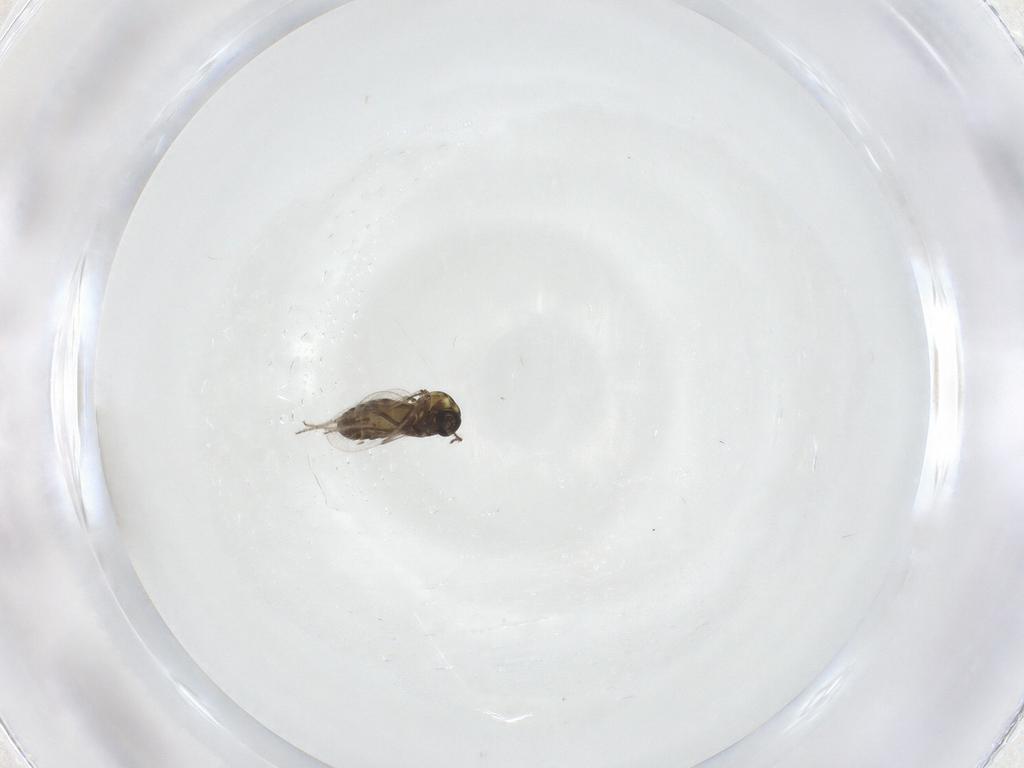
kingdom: Animalia
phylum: Arthropoda
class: Insecta
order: Diptera
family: Ceratopogonidae
